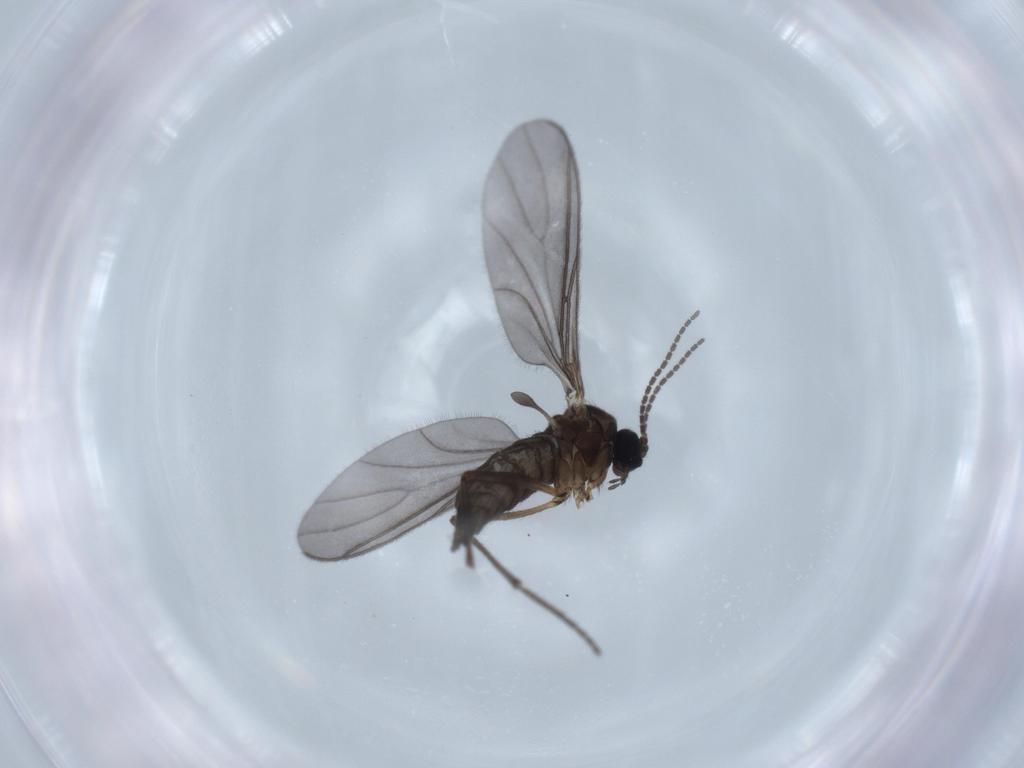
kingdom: Animalia
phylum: Arthropoda
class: Insecta
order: Diptera
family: Sciaridae
